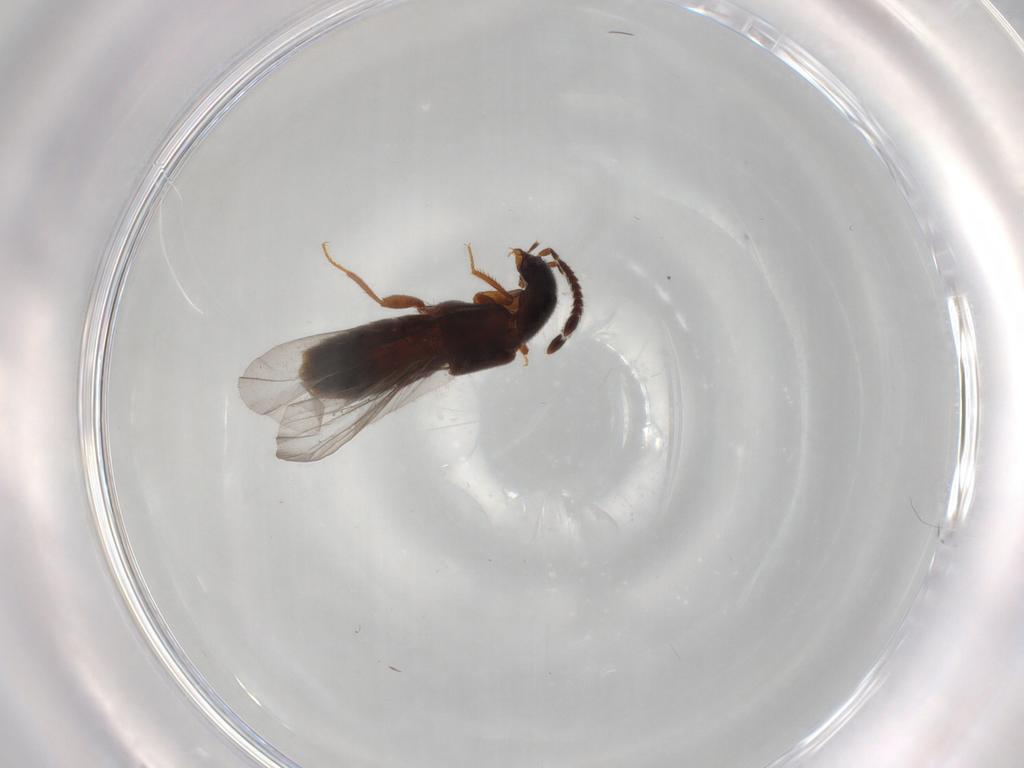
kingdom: Animalia
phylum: Arthropoda
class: Insecta
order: Coleoptera
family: Staphylinidae
